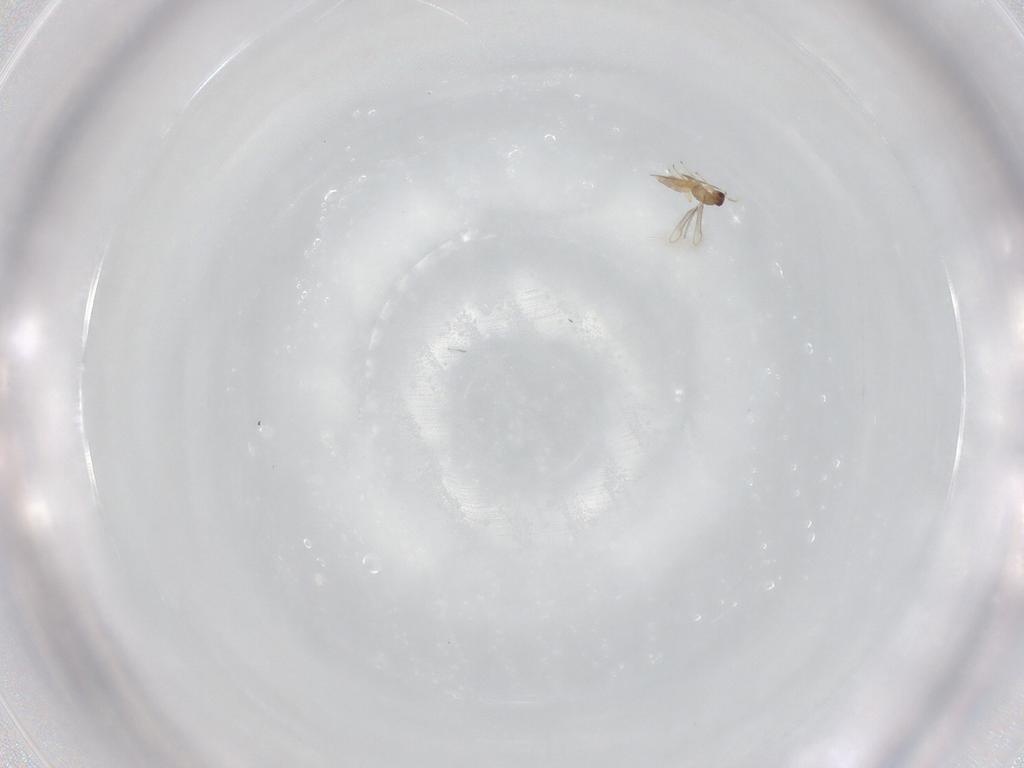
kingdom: Animalia
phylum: Arthropoda
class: Insecta
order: Hymenoptera
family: Mymaridae
